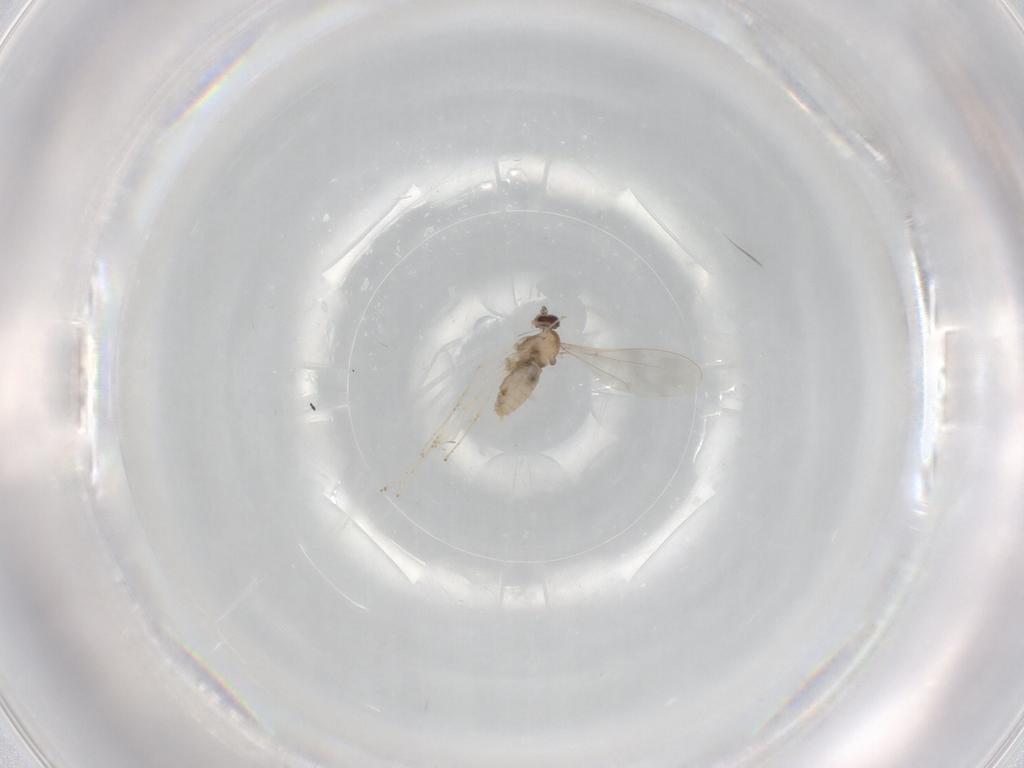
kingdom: Animalia
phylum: Arthropoda
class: Insecta
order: Diptera
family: Cecidomyiidae
